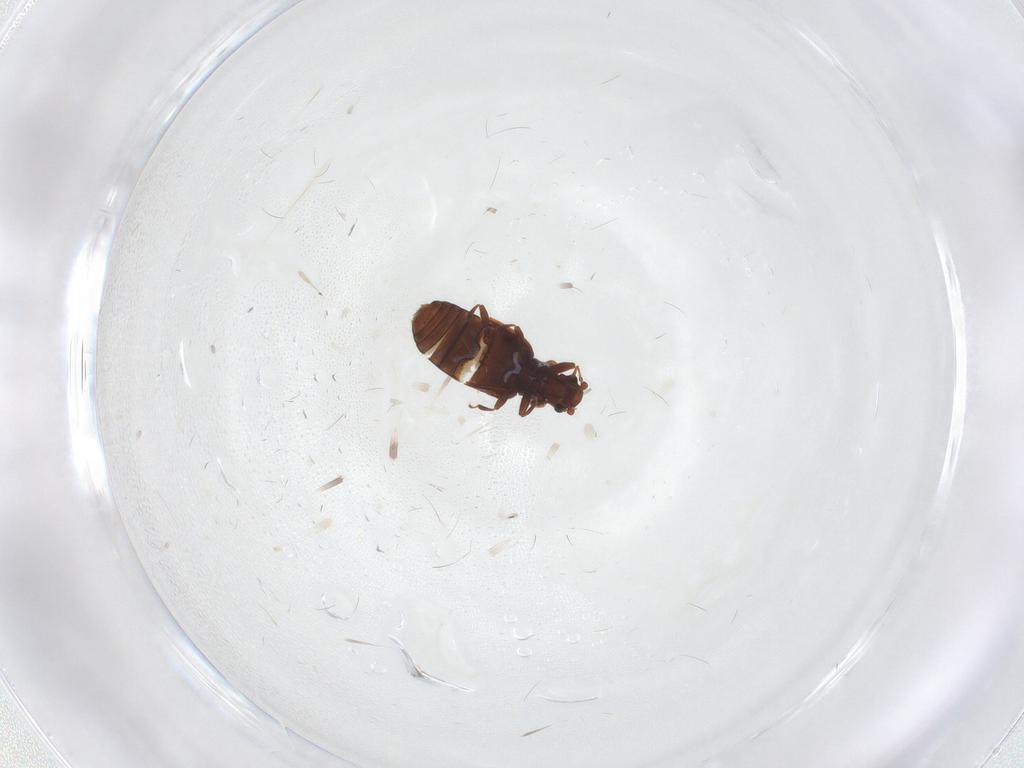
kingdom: Animalia
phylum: Arthropoda
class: Insecta
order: Coleoptera
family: Latridiidae
